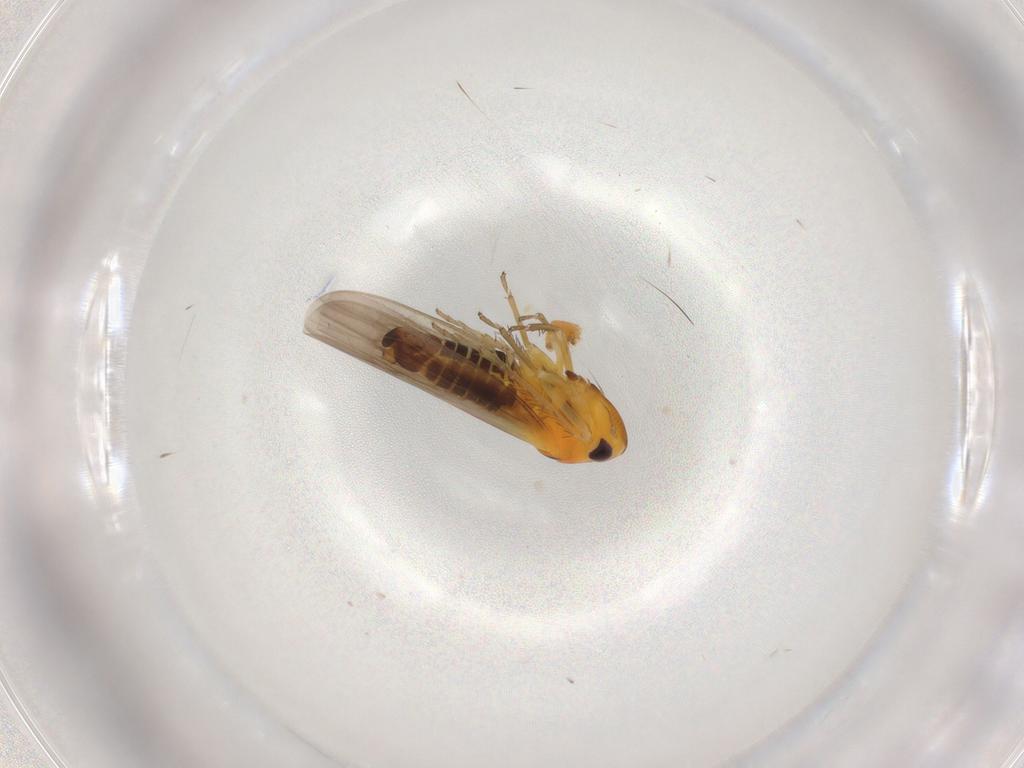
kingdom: Animalia
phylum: Arthropoda
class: Insecta
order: Hemiptera
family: Cicadellidae
